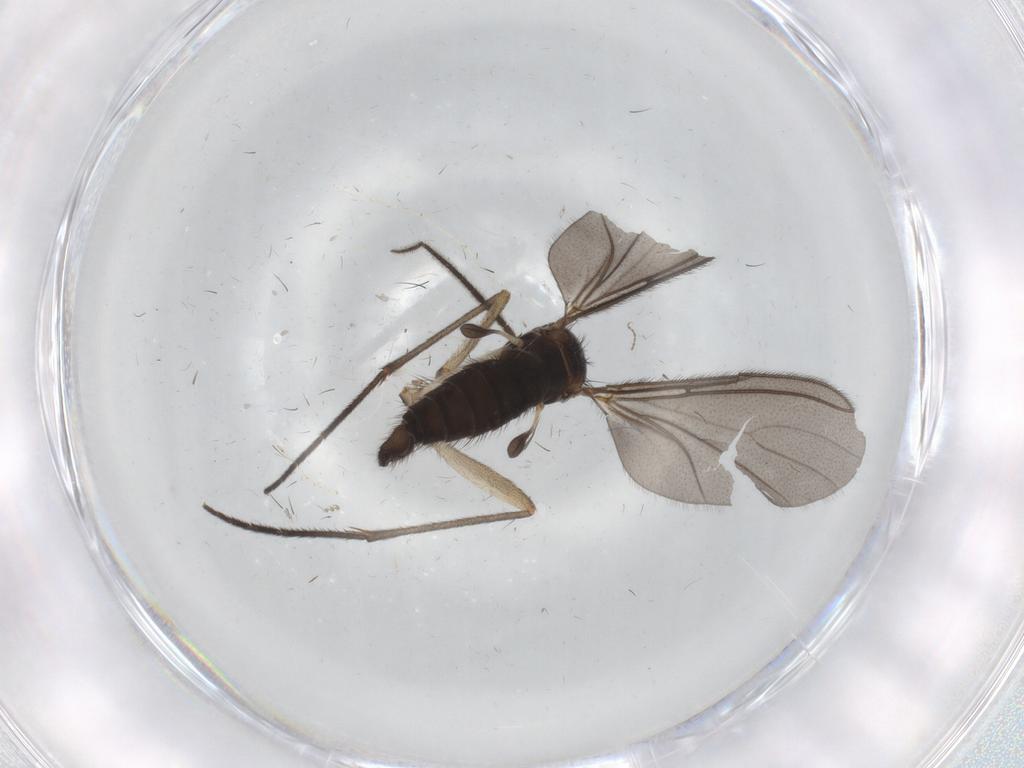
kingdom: Animalia
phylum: Arthropoda
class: Insecta
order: Diptera
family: Sciaridae
